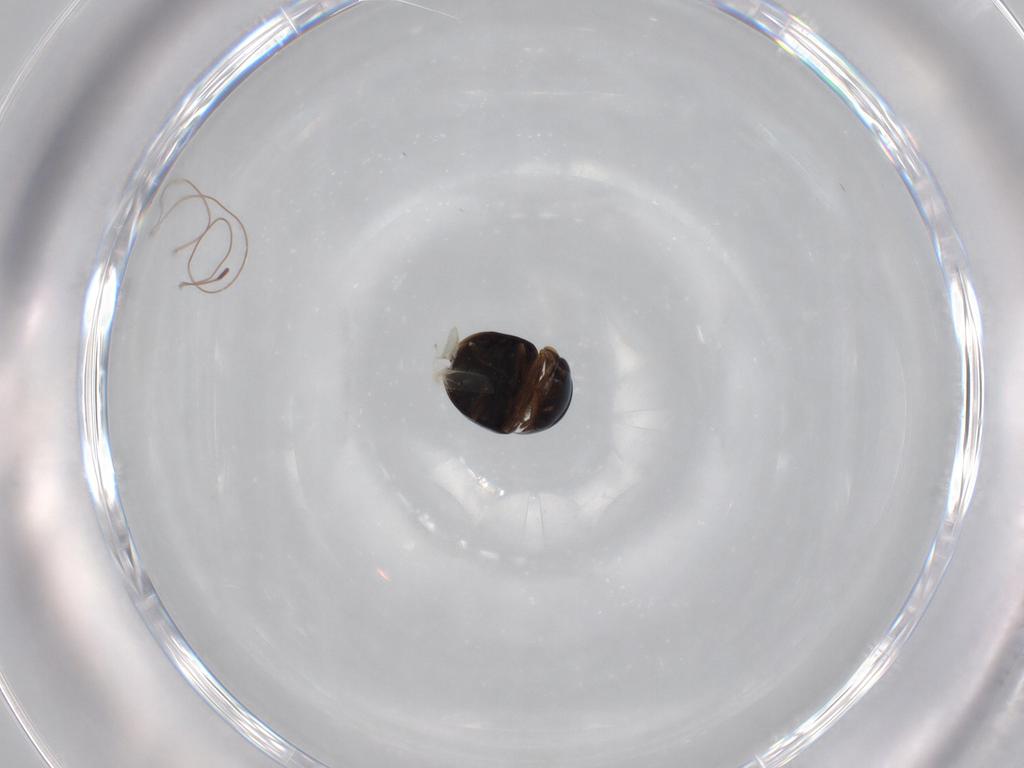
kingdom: Animalia
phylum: Arthropoda
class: Insecta
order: Coleoptera
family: Cybocephalidae
